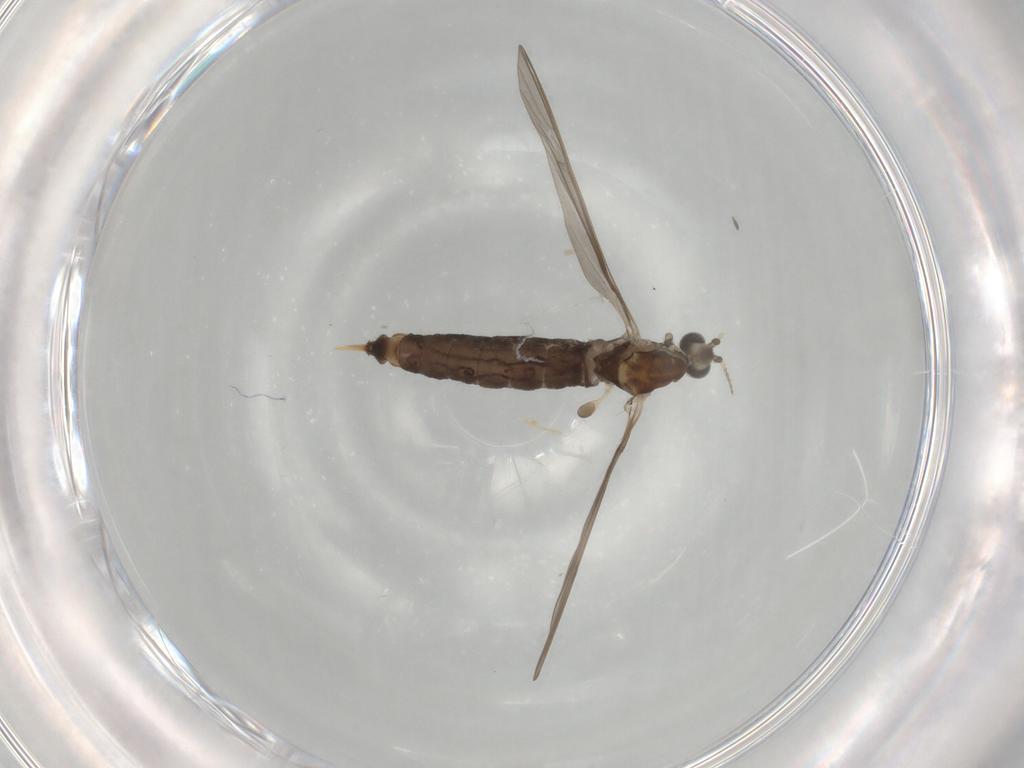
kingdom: Animalia
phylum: Arthropoda
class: Insecta
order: Diptera
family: Limoniidae
